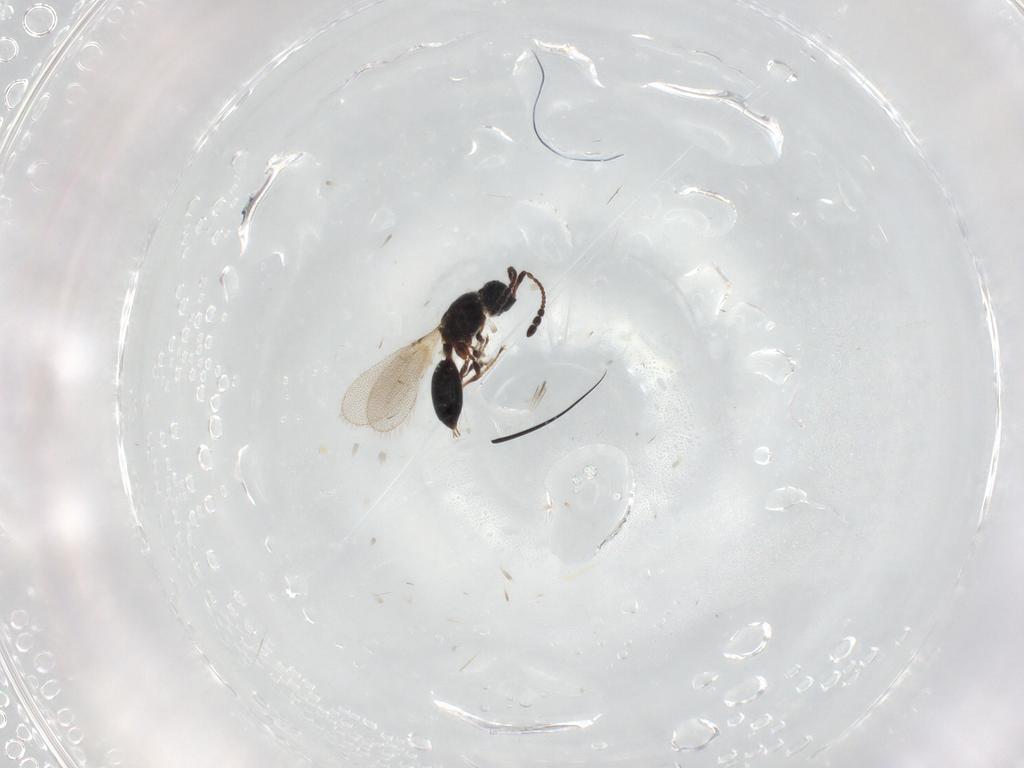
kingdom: Animalia
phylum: Arthropoda
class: Insecta
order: Hymenoptera
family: Diapriidae
